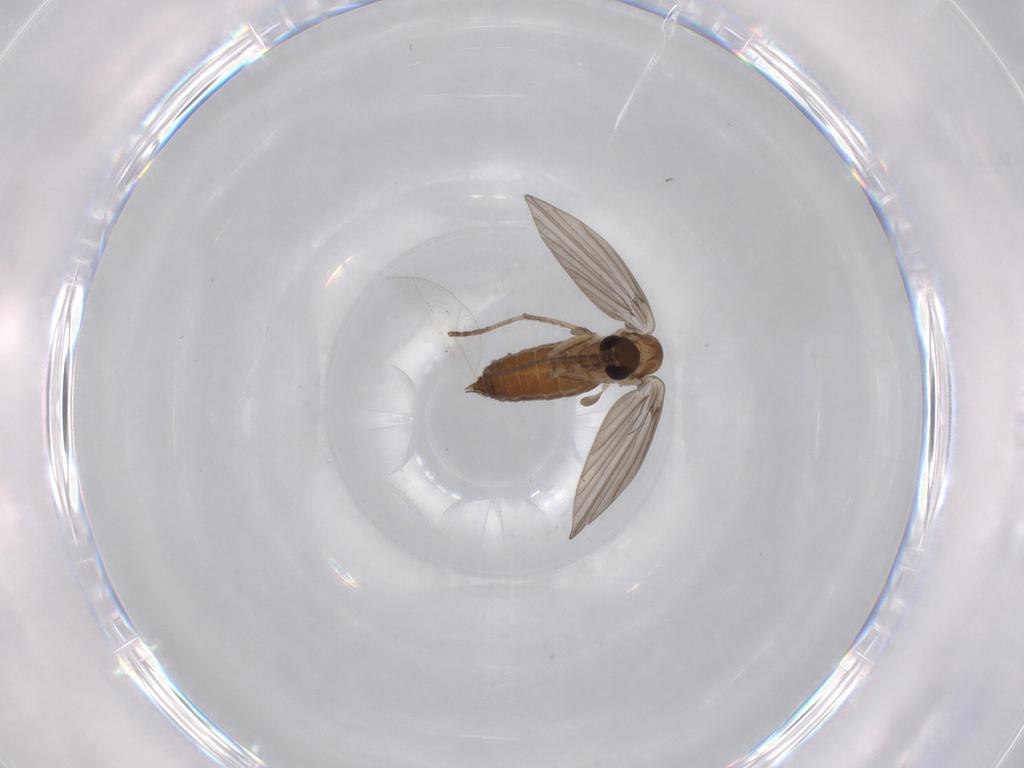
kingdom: Animalia
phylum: Arthropoda
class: Insecta
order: Diptera
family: Phoridae
